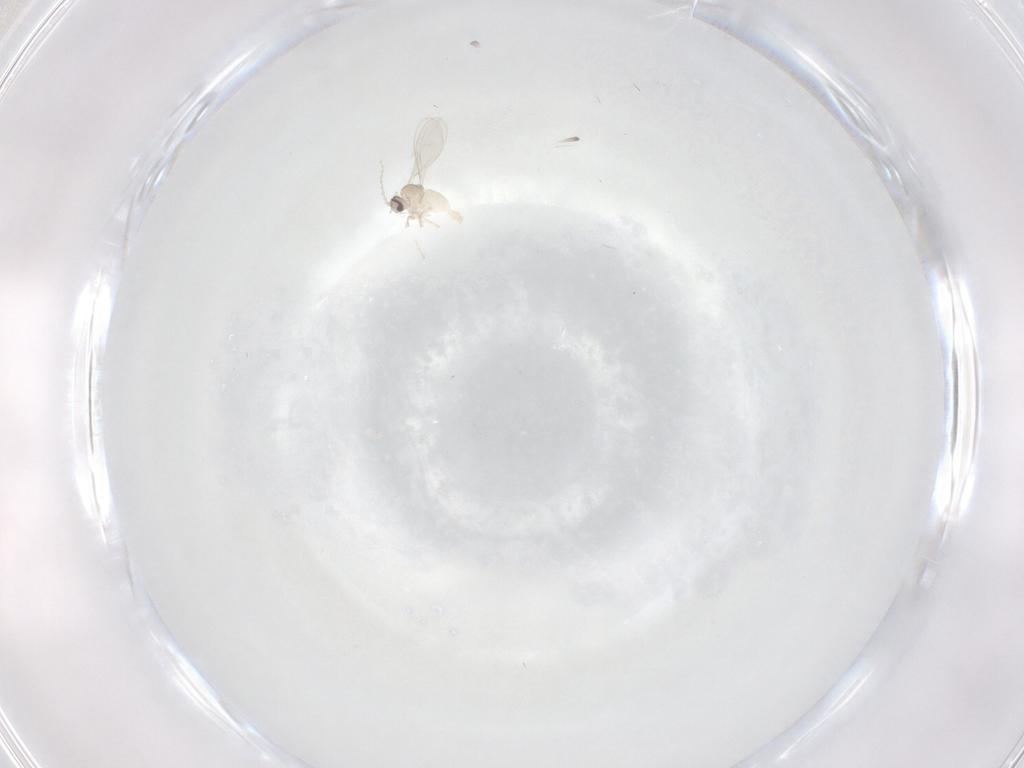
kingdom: Animalia
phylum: Arthropoda
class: Insecta
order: Diptera
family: Cecidomyiidae
